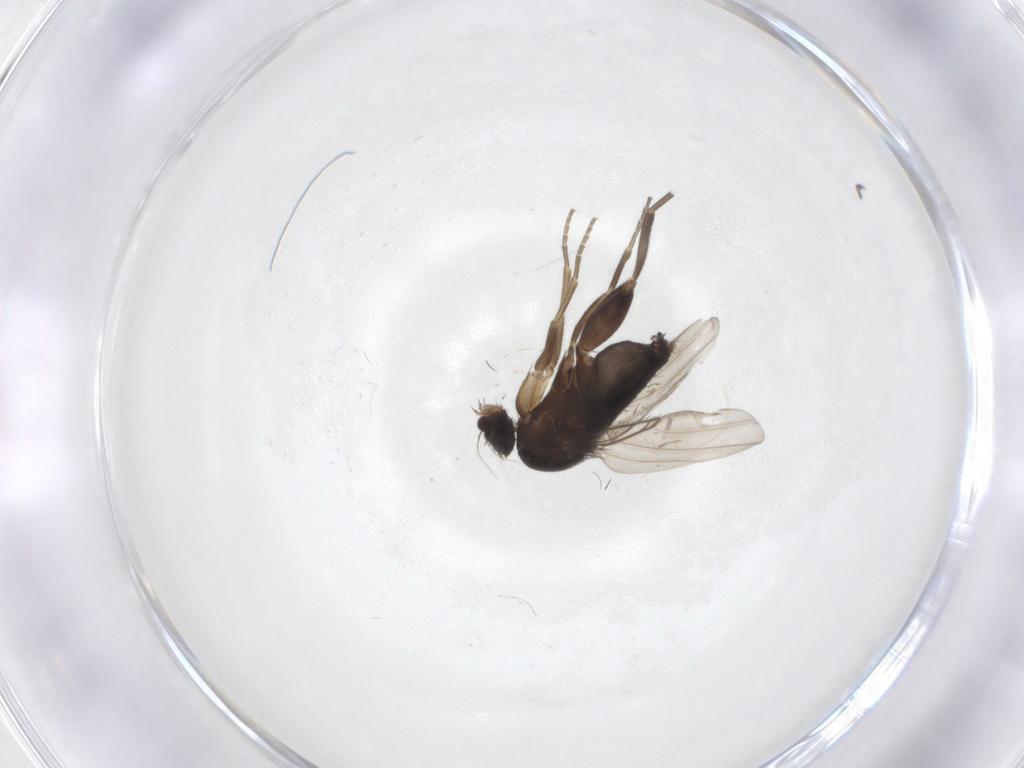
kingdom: Animalia
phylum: Arthropoda
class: Insecta
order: Diptera
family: Phoridae
